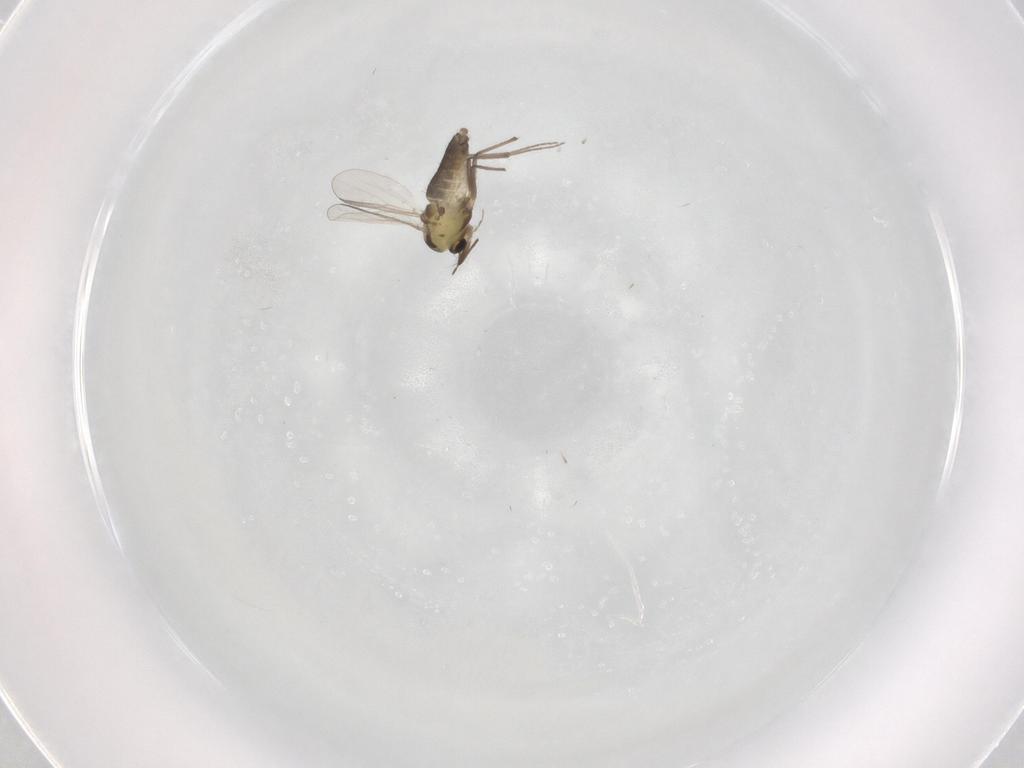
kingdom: Animalia
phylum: Arthropoda
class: Insecta
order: Diptera
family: Chironomidae
